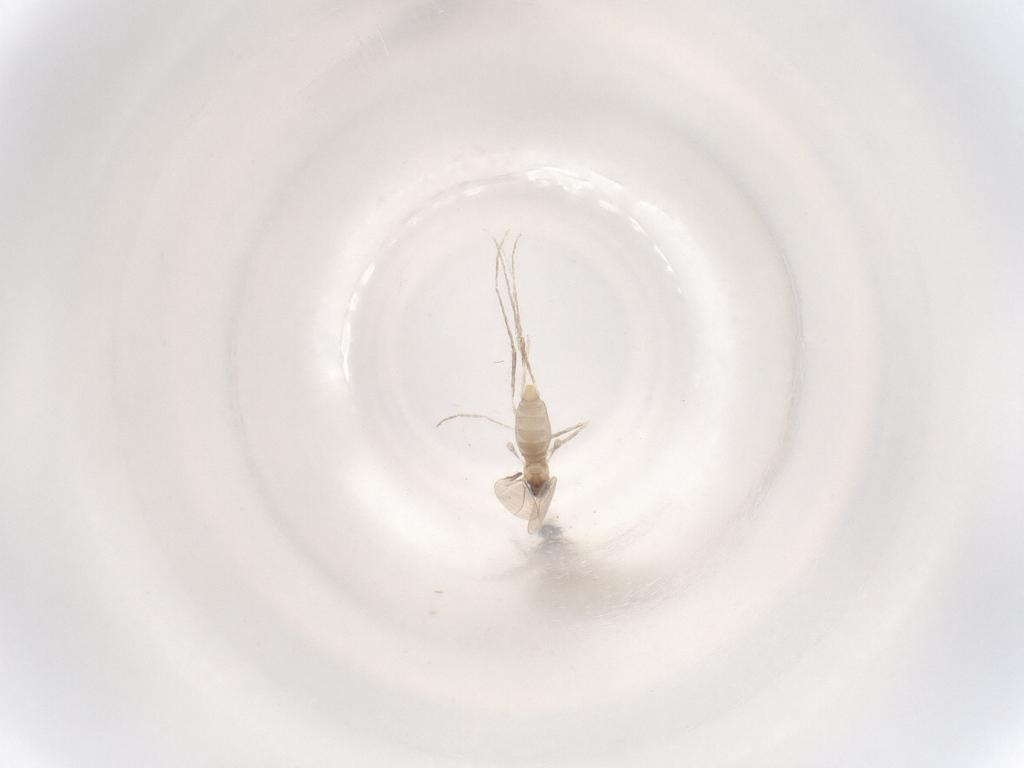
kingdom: Animalia
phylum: Arthropoda
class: Insecta
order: Diptera
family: Cecidomyiidae
